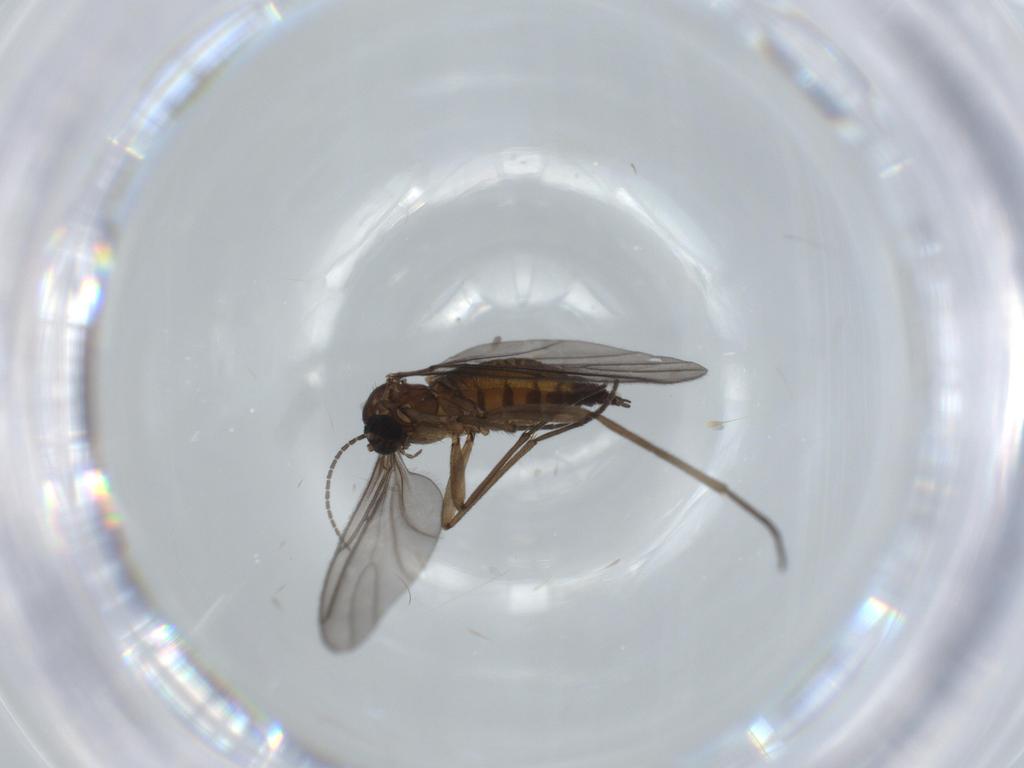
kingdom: Animalia
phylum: Arthropoda
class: Insecta
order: Diptera
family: Sciaridae
